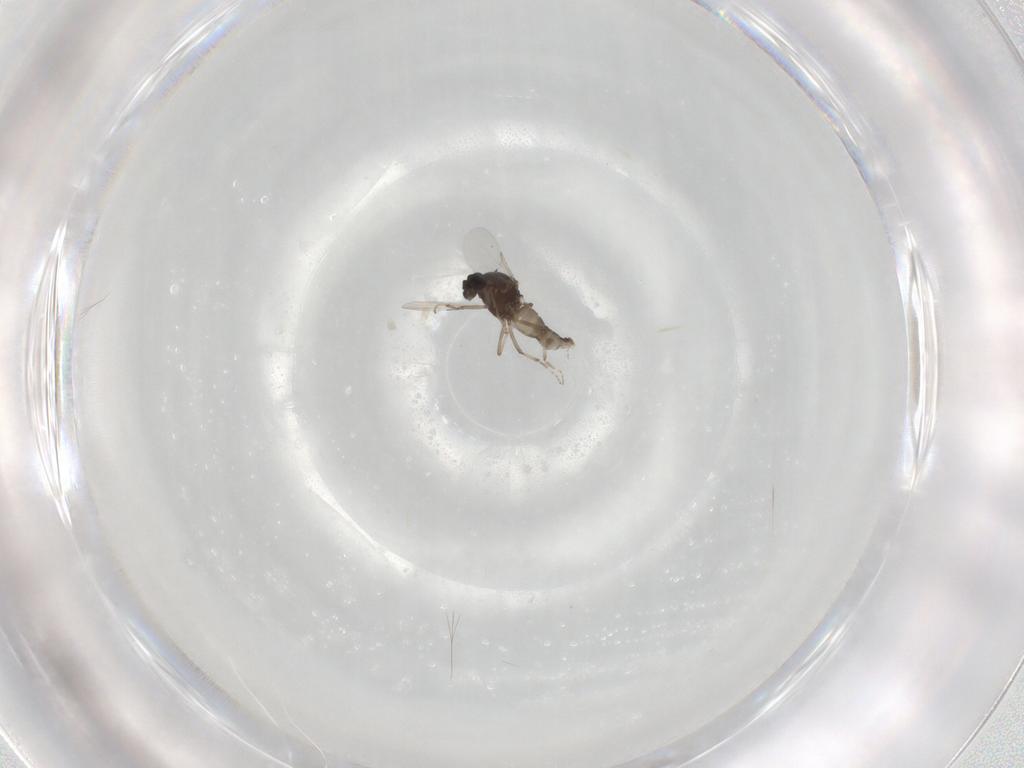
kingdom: Animalia
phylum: Arthropoda
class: Insecta
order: Diptera
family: Ceratopogonidae
